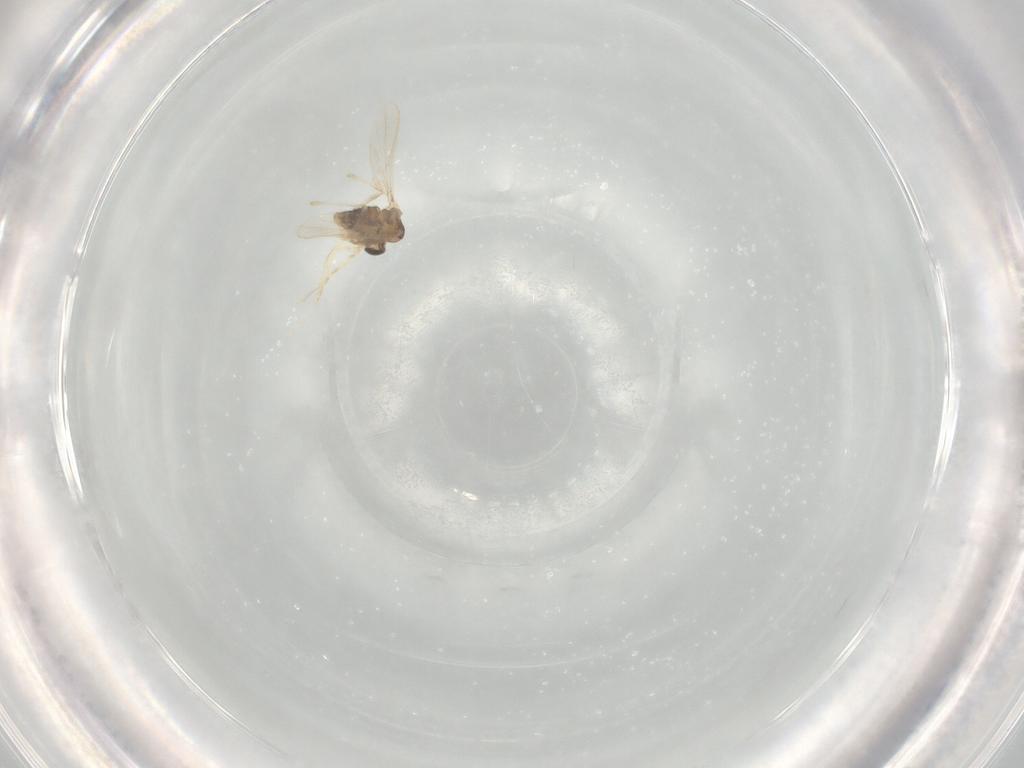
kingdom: Animalia
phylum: Arthropoda
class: Insecta
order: Diptera
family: Chironomidae
